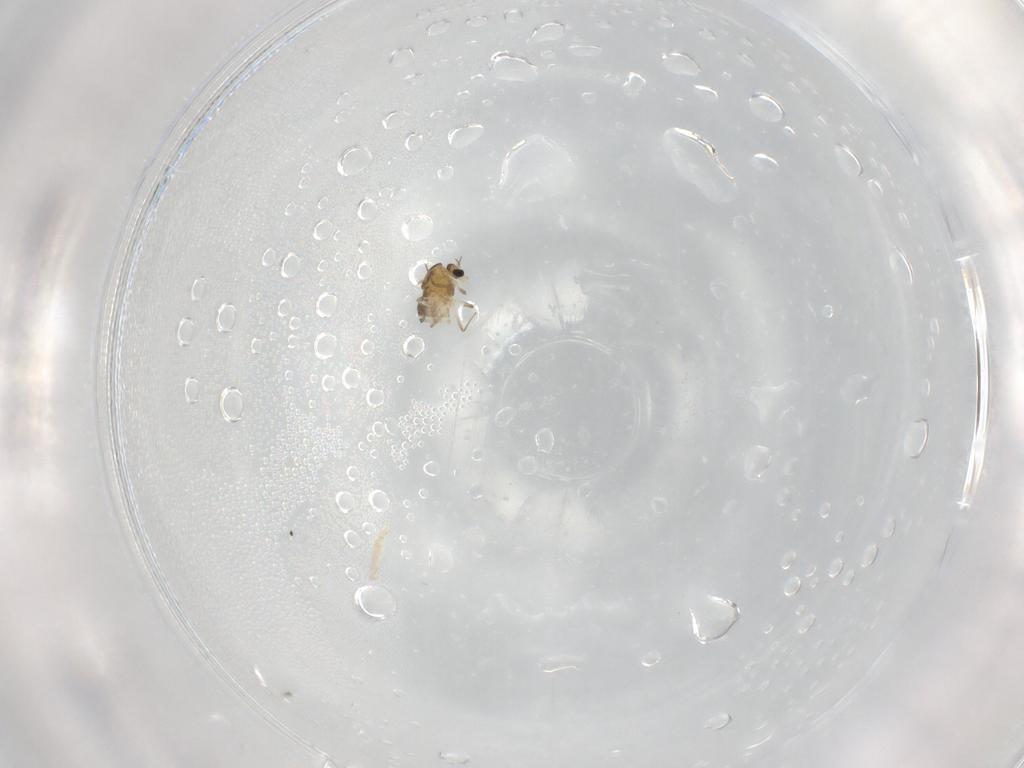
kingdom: Animalia
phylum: Arthropoda
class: Insecta
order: Diptera
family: Chironomidae
